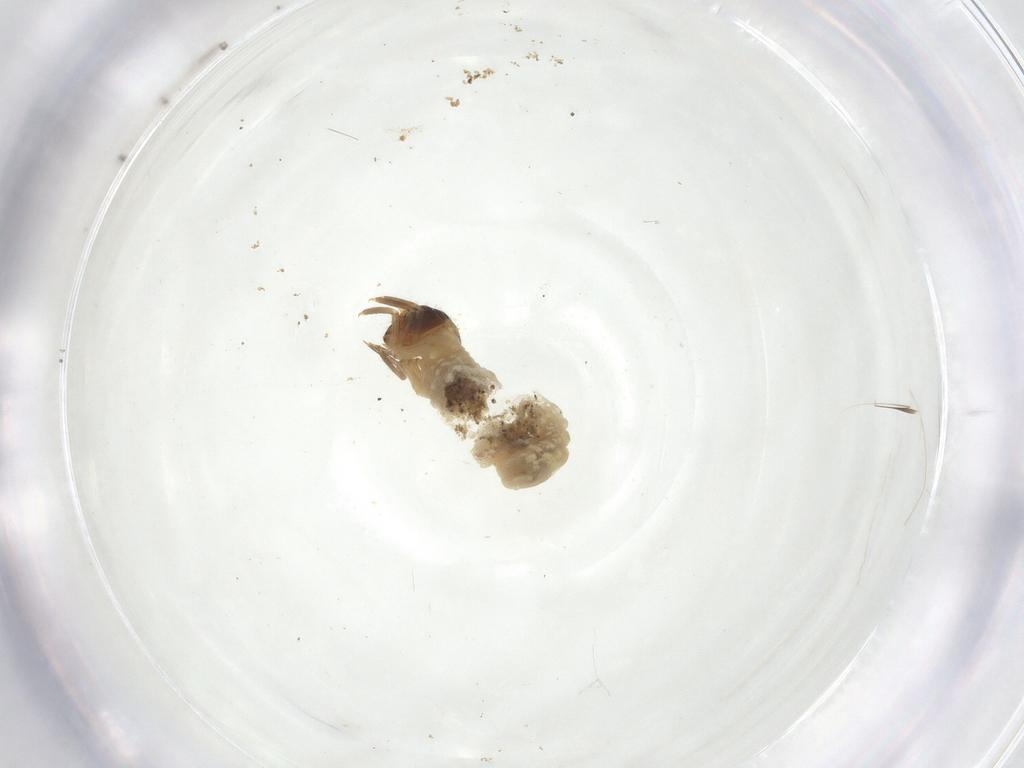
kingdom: Animalia
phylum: Arthropoda
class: Insecta
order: Coleoptera
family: Chrysomelidae
